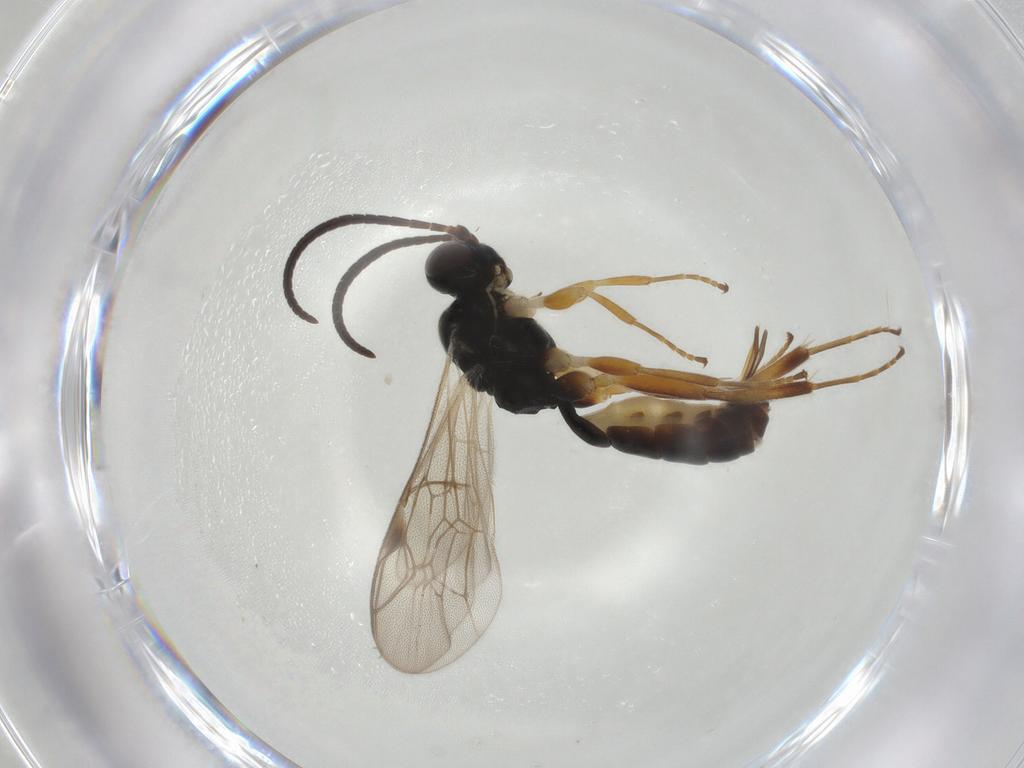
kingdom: Animalia
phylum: Arthropoda
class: Insecta
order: Hymenoptera
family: Ichneumonidae
